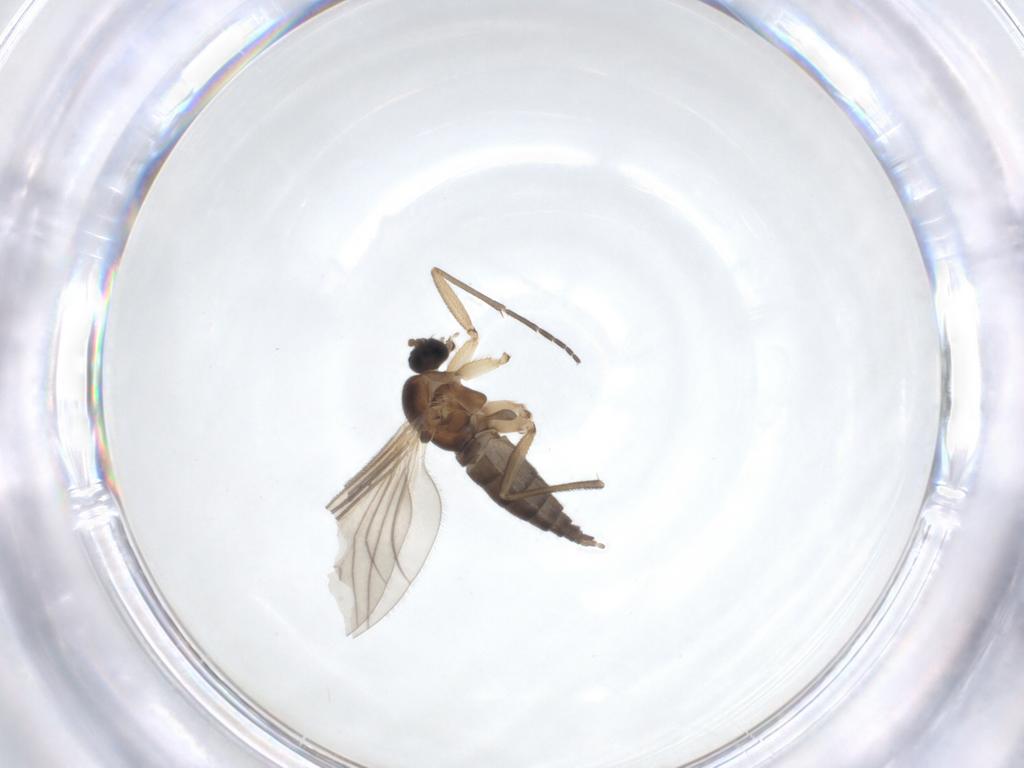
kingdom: Animalia
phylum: Arthropoda
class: Insecta
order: Diptera
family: Sciaridae
